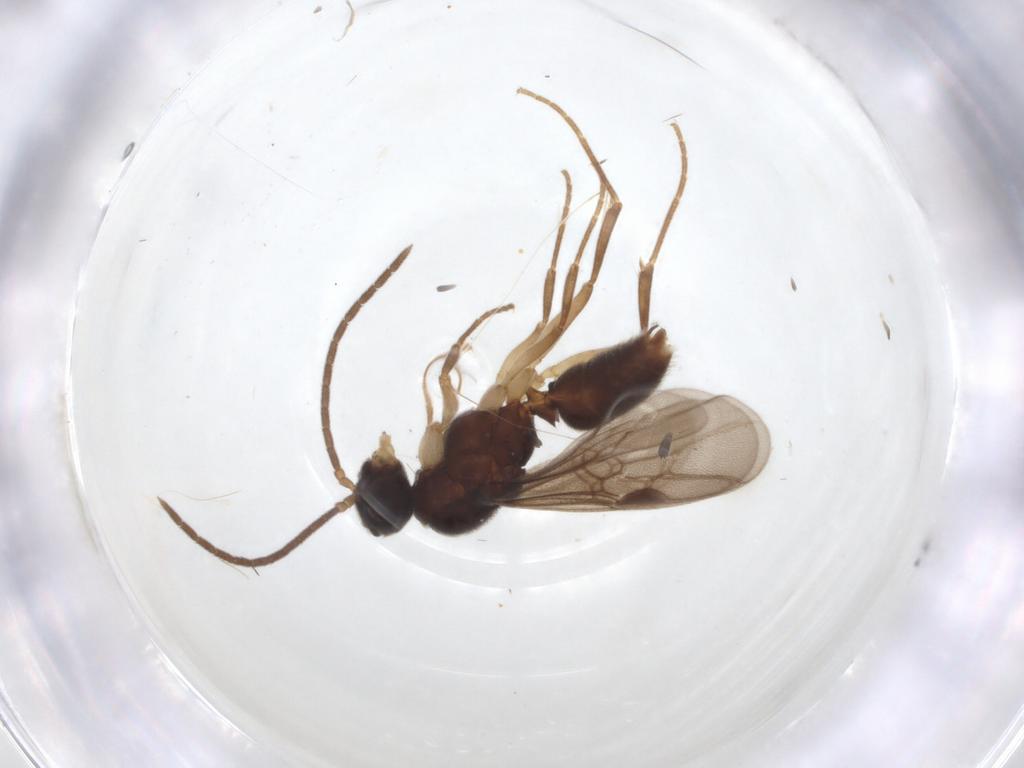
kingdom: Animalia
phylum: Arthropoda
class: Insecta
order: Hymenoptera
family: Formicidae
